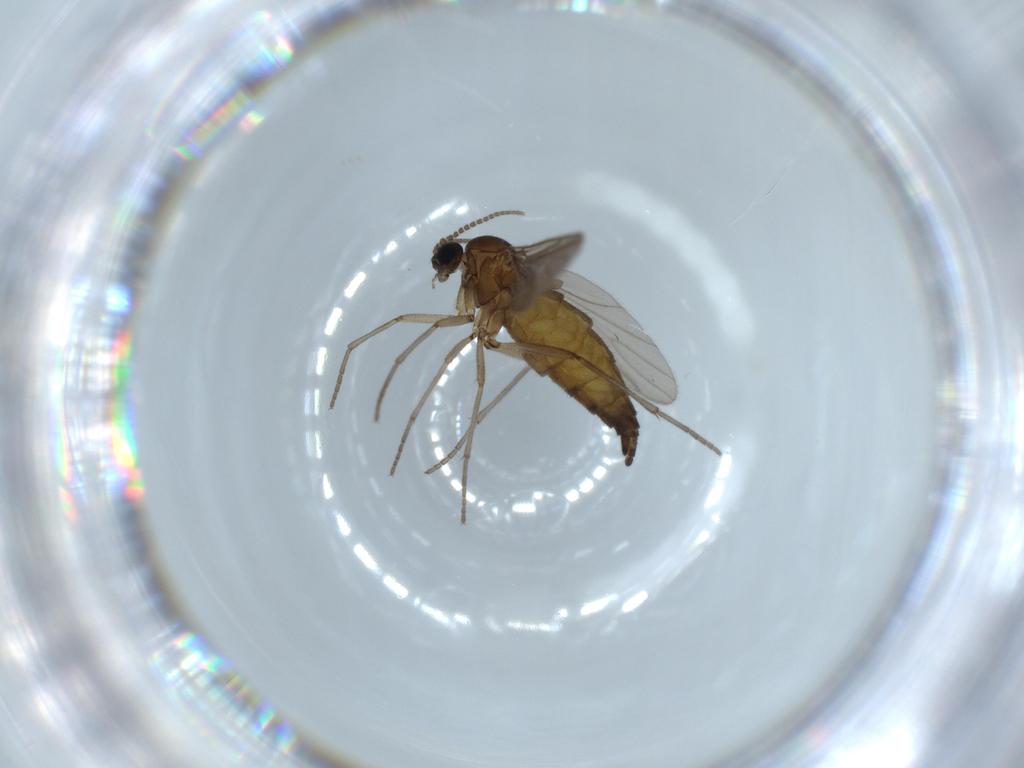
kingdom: Animalia
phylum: Arthropoda
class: Insecta
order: Diptera
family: Sciaridae
